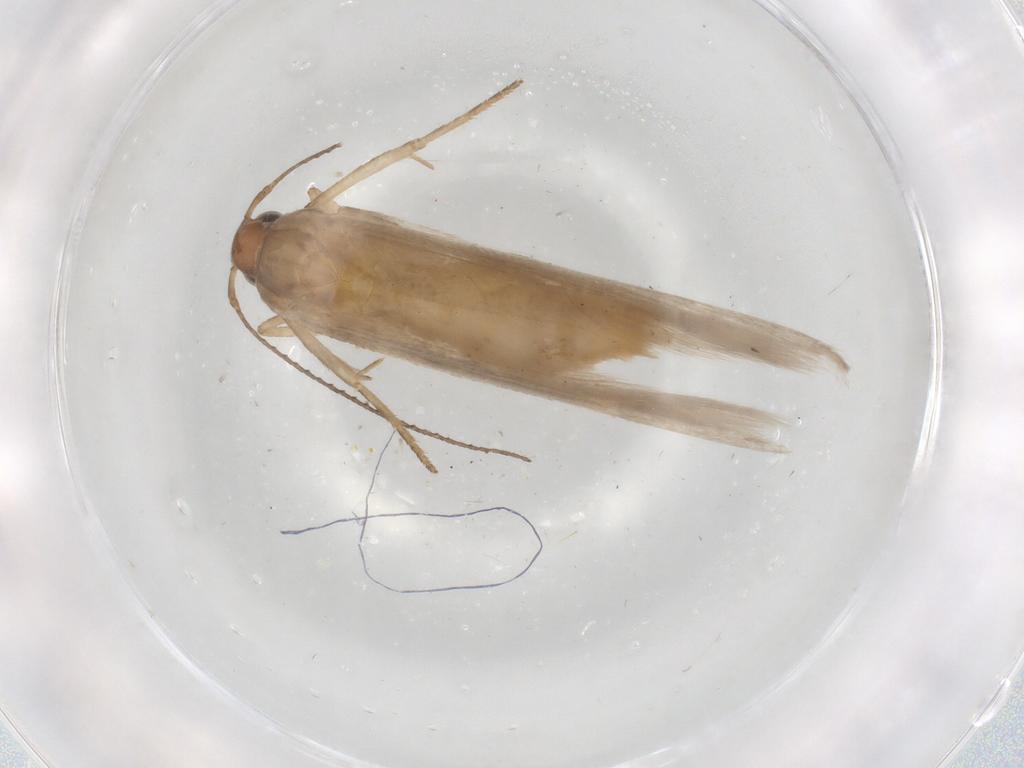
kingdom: Animalia
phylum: Arthropoda
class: Insecta
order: Lepidoptera
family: Gelechiidae
